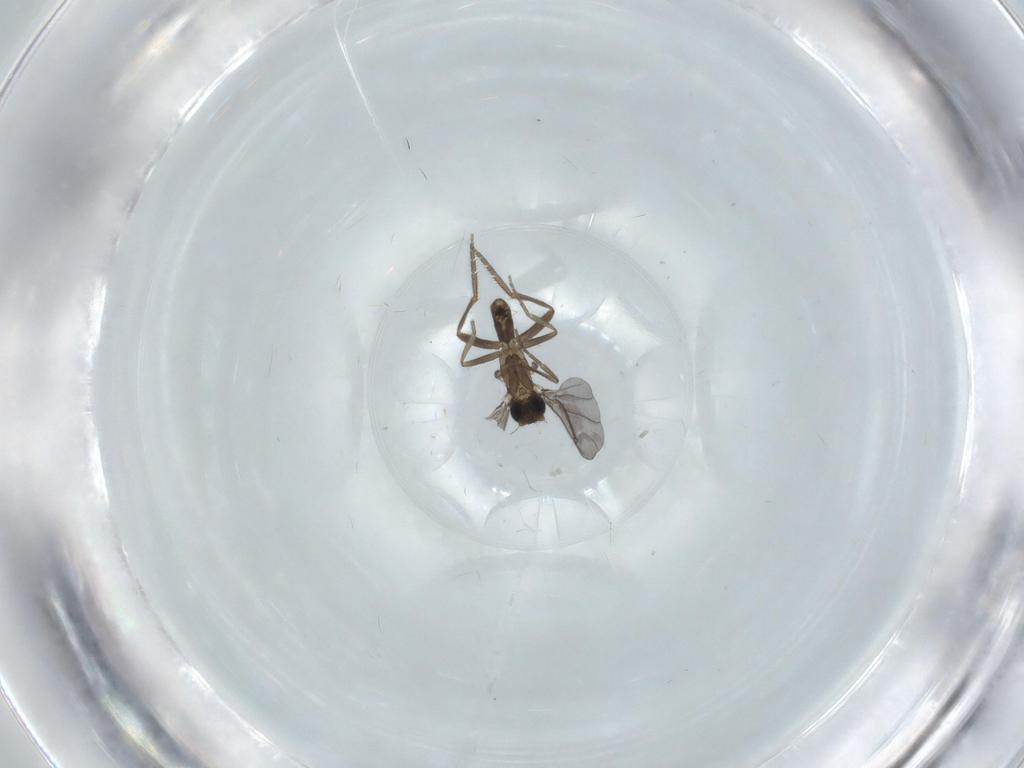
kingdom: Animalia
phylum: Arthropoda
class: Insecta
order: Diptera
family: Phoridae
